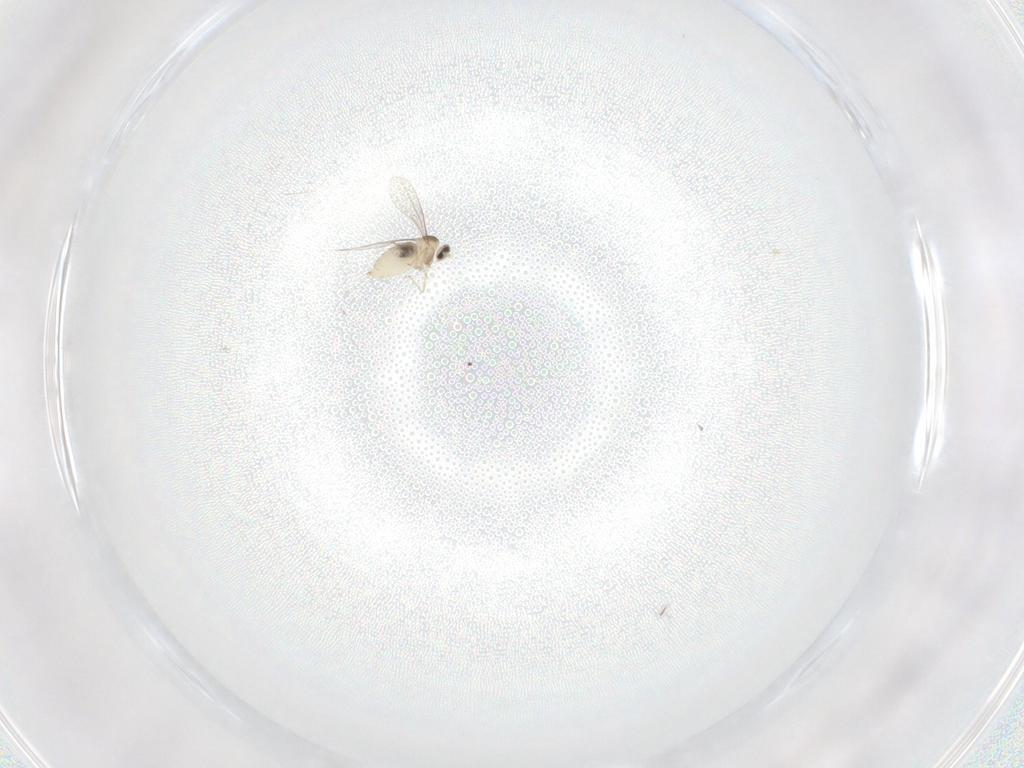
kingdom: Animalia
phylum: Arthropoda
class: Insecta
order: Diptera
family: Cecidomyiidae
